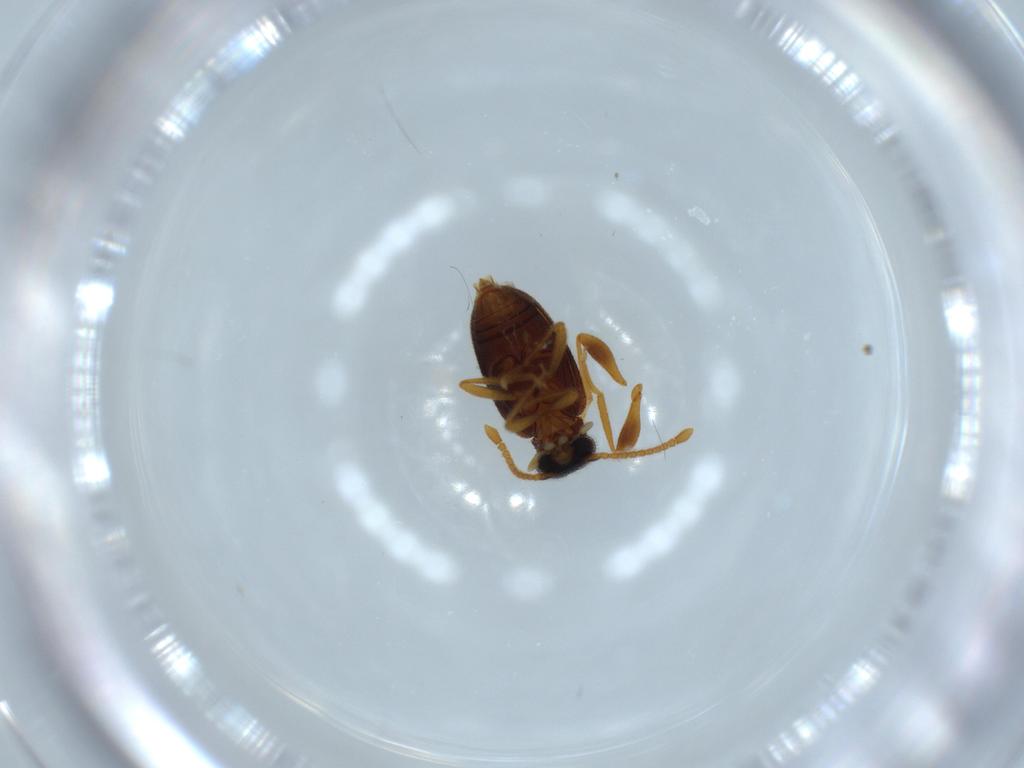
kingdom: Animalia
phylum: Arthropoda
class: Insecta
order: Coleoptera
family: Aderidae
